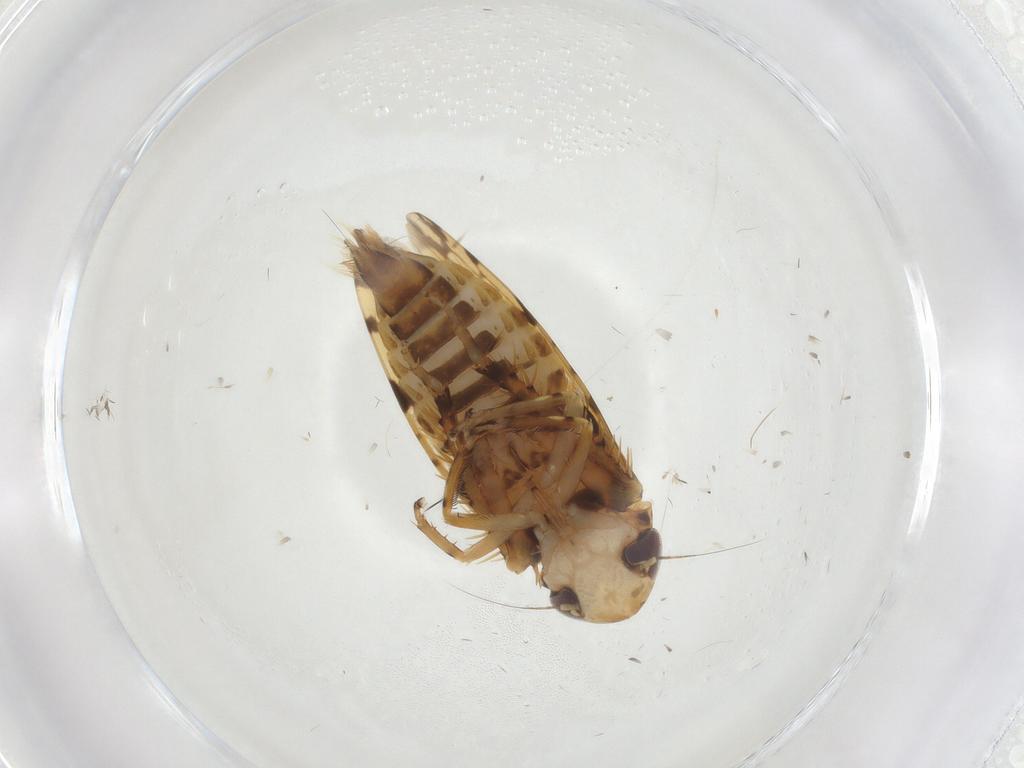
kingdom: Animalia
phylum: Arthropoda
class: Insecta
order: Hemiptera
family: Cicadellidae
